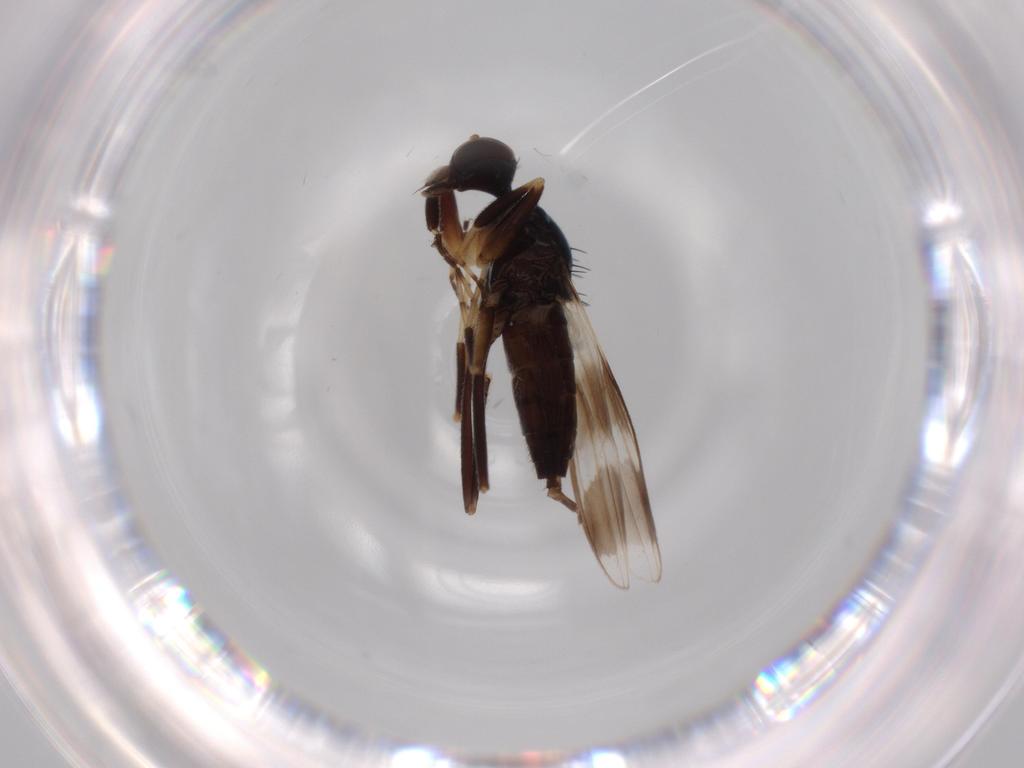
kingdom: Animalia
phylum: Arthropoda
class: Insecta
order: Diptera
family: Hybotidae
